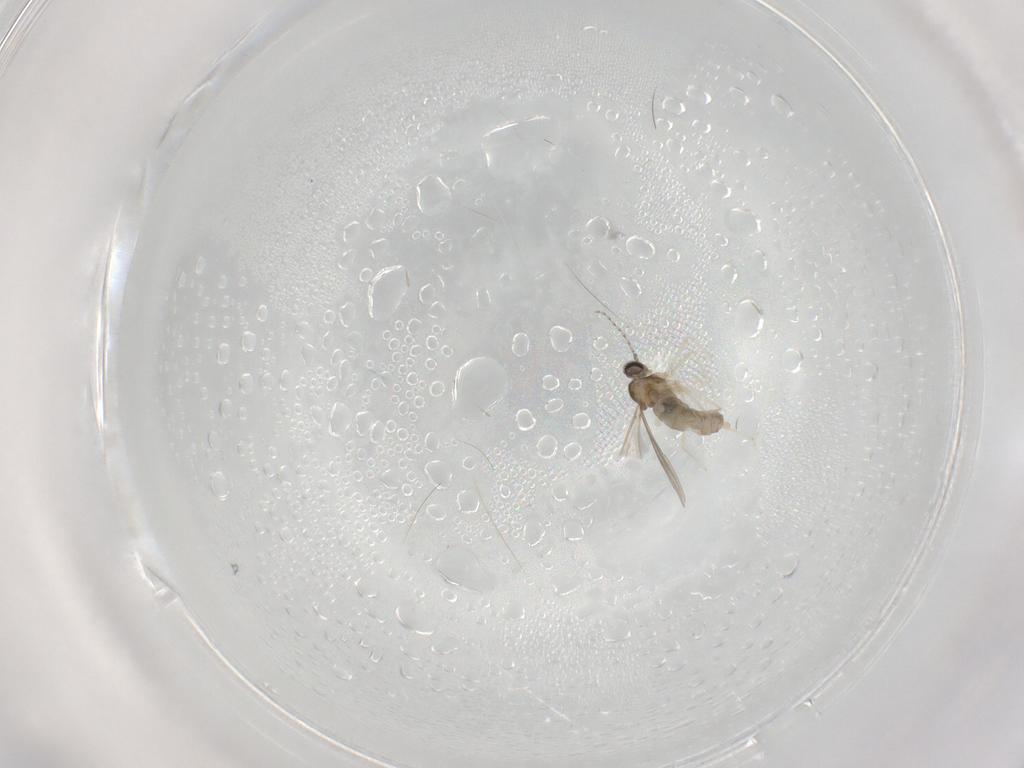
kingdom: Animalia
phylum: Arthropoda
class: Insecta
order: Diptera
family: Cecidomyiidae
